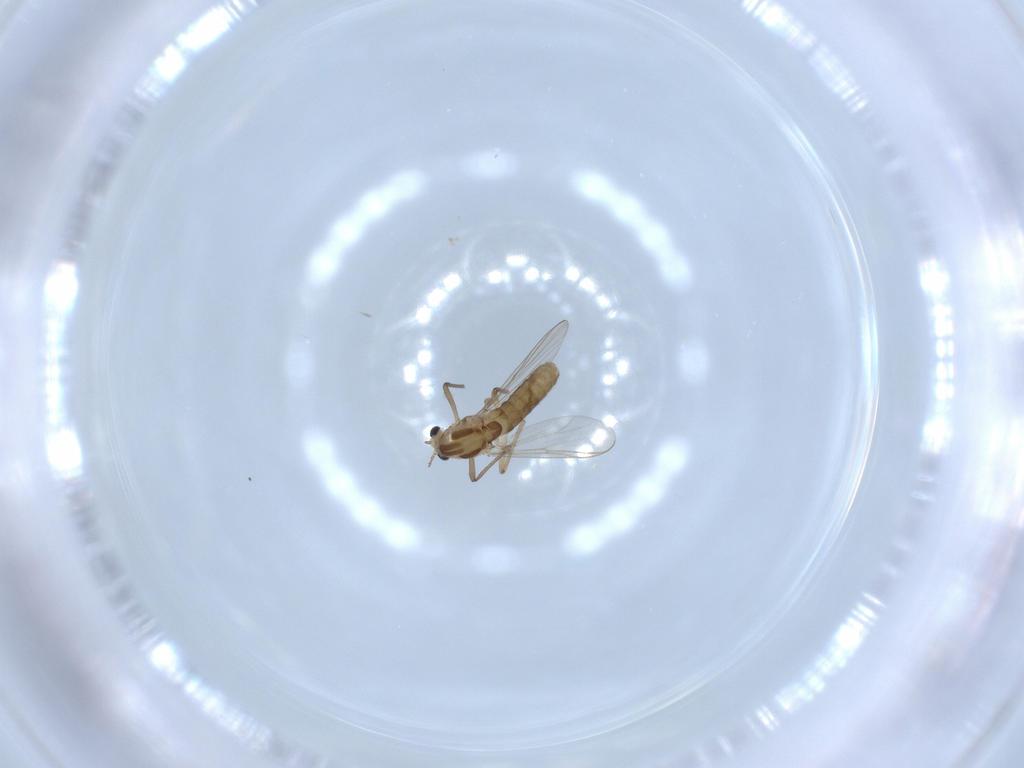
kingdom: Animalia
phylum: Arthropoda
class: Insecta
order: Diptera
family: Chironomidae
